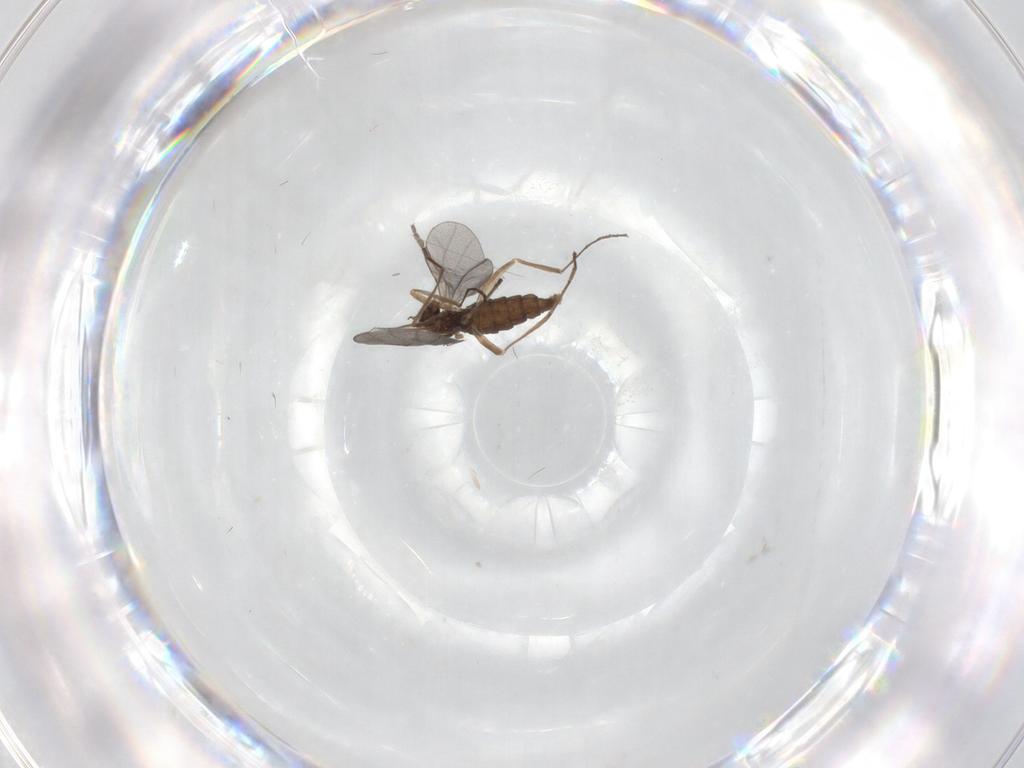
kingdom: Animalia
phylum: Arthropoda
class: Insecta
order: Diptera
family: Cecidomyiidae
